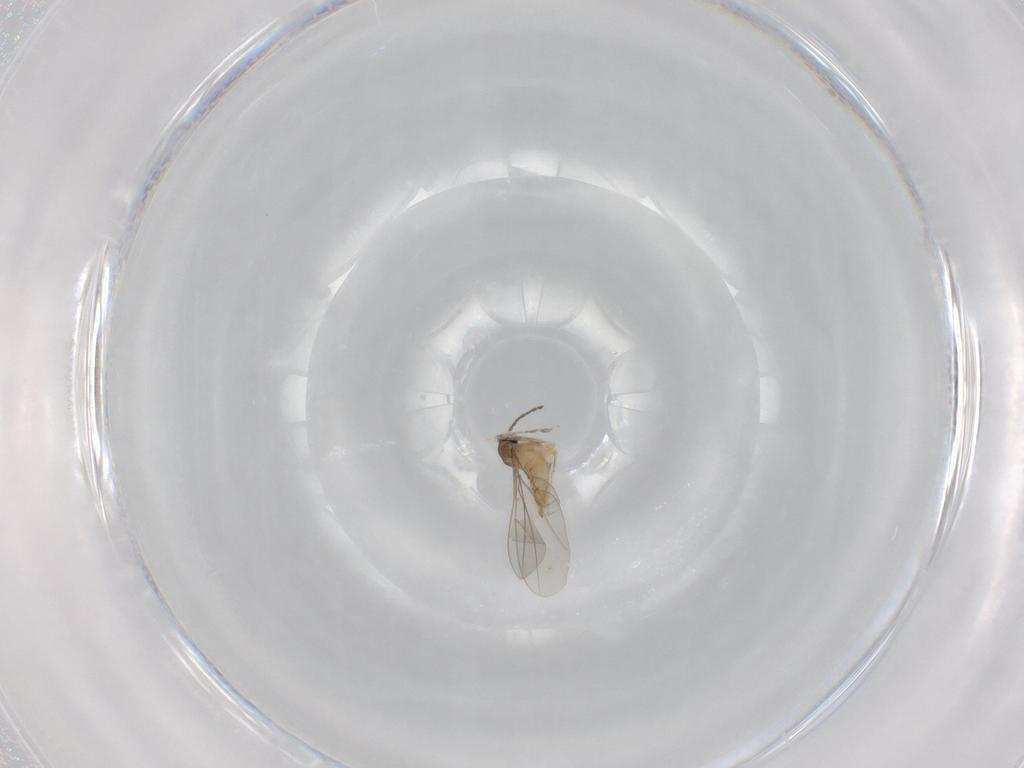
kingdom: Animalia
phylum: Arthropoda
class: Insecta
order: Diptera
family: Cecidomyiidae
